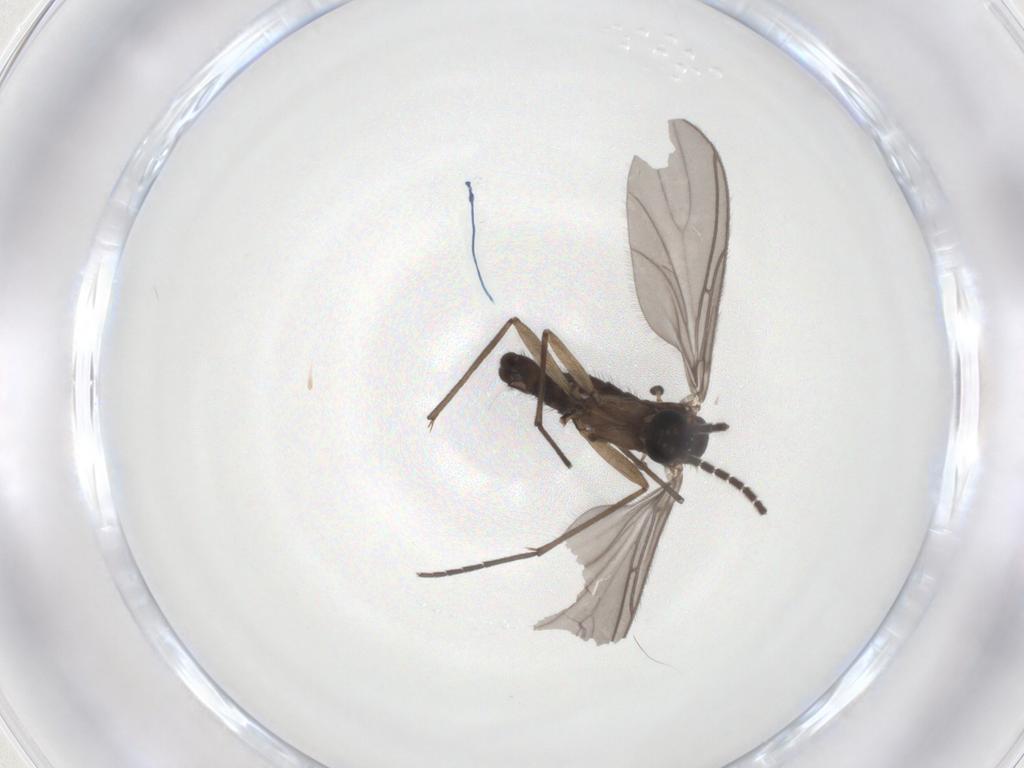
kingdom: Animalia
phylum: Arthropoda
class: Insecta
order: Diptera
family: Sciaridae
